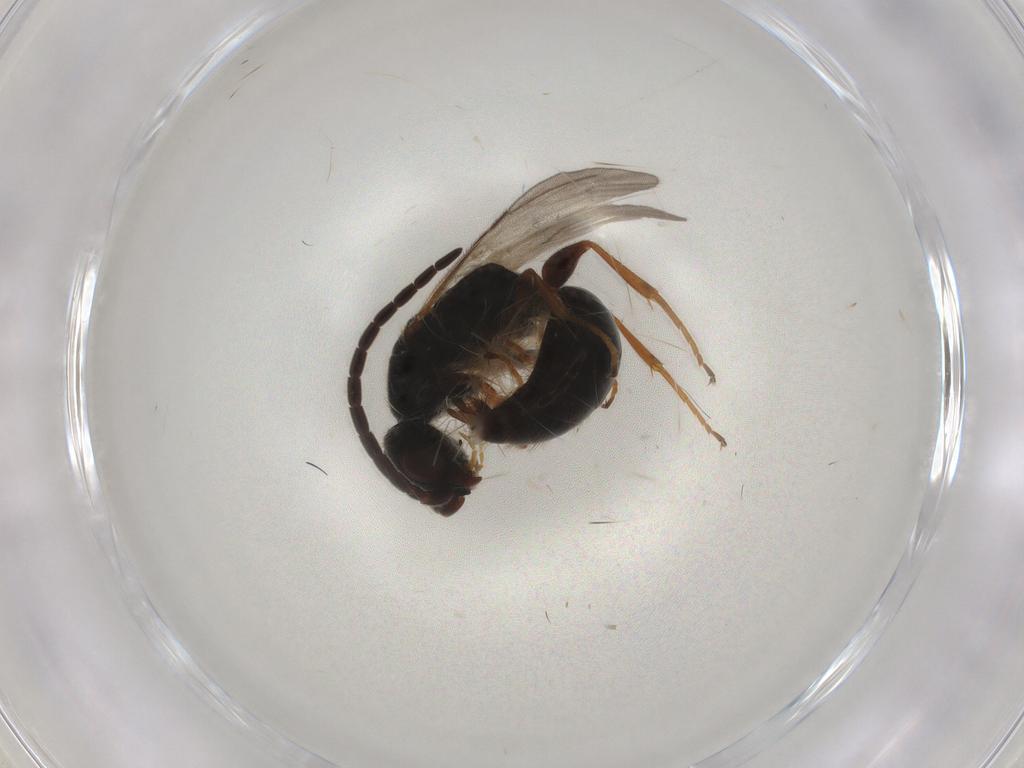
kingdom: Animalia
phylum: Arthropoda
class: Insecta
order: Hymenoptera
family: Bethylidae
